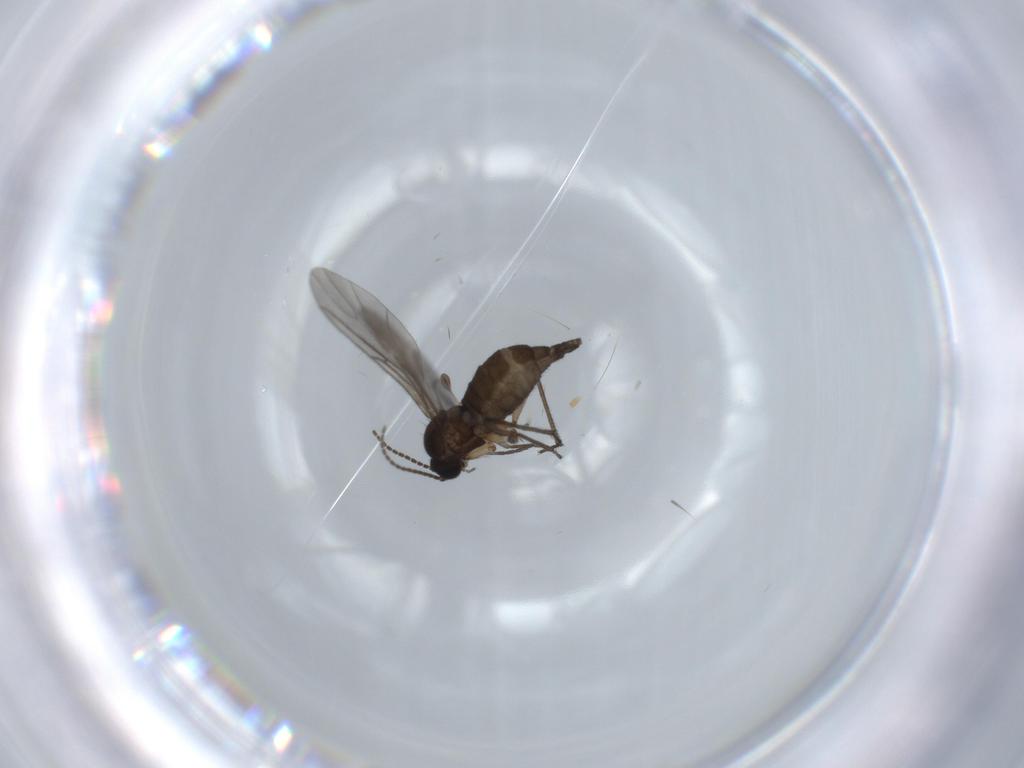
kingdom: Animalia
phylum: Arthropoda
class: Insecta
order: Diptera
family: Sciaridae
